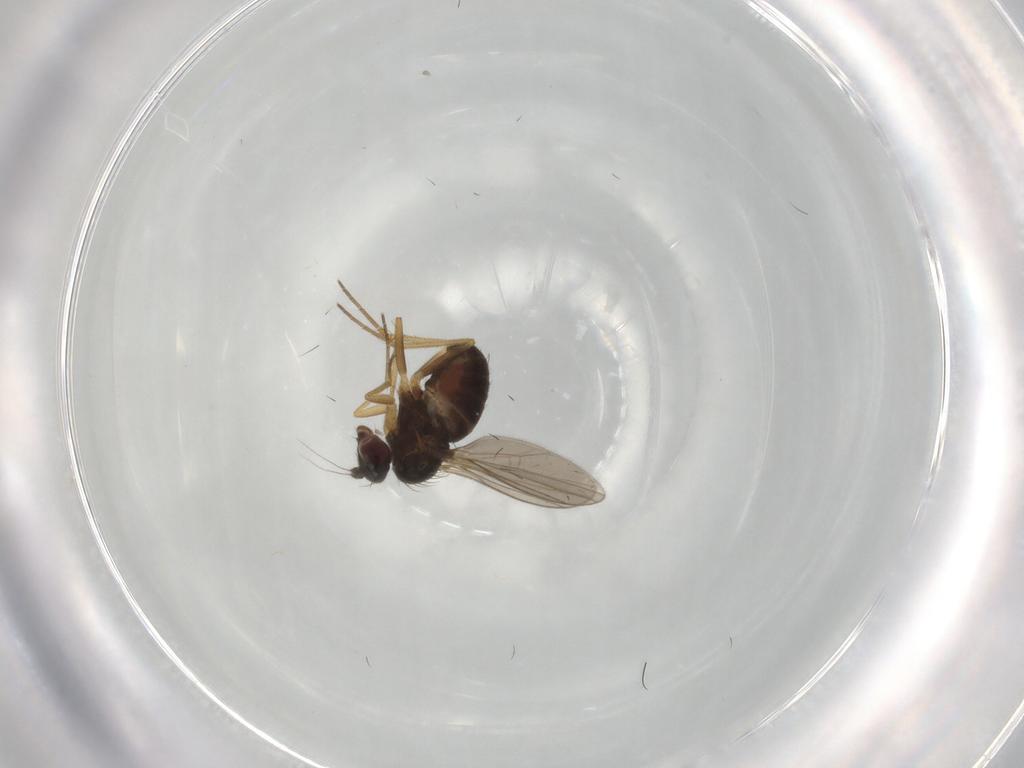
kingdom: Animalia
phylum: Arthropoda
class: Insecta
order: Diptera
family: Dolichopodidae
